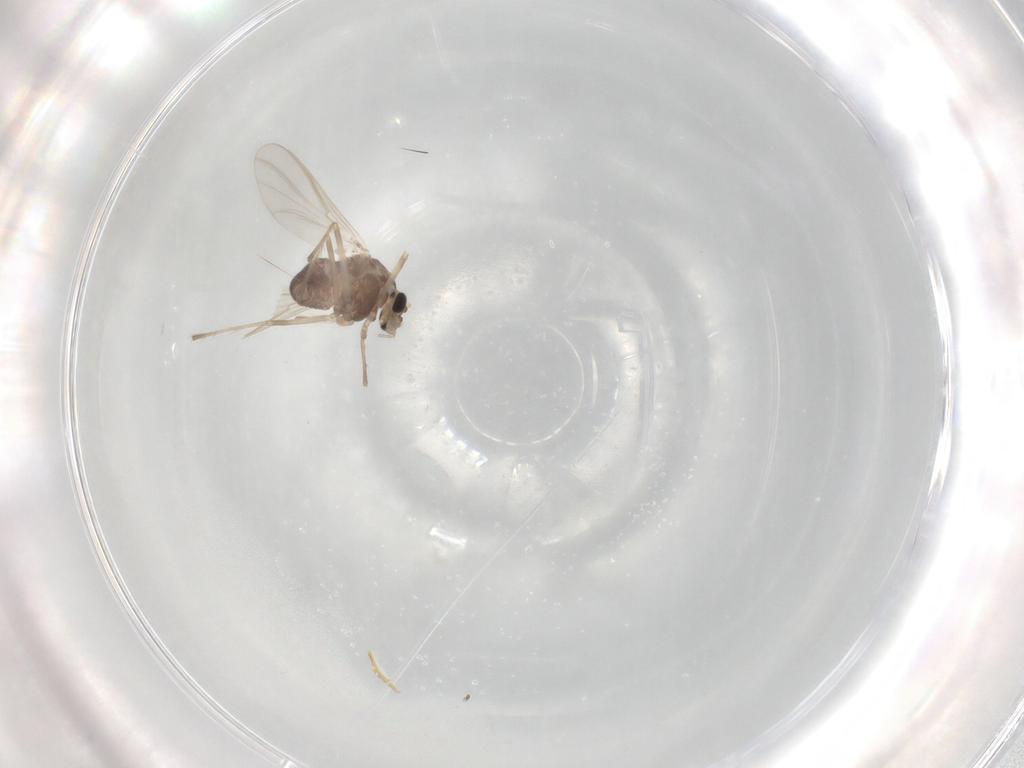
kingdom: Animalia
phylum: Arthropoda
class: Insecta
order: Diptera
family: Chironomidae
